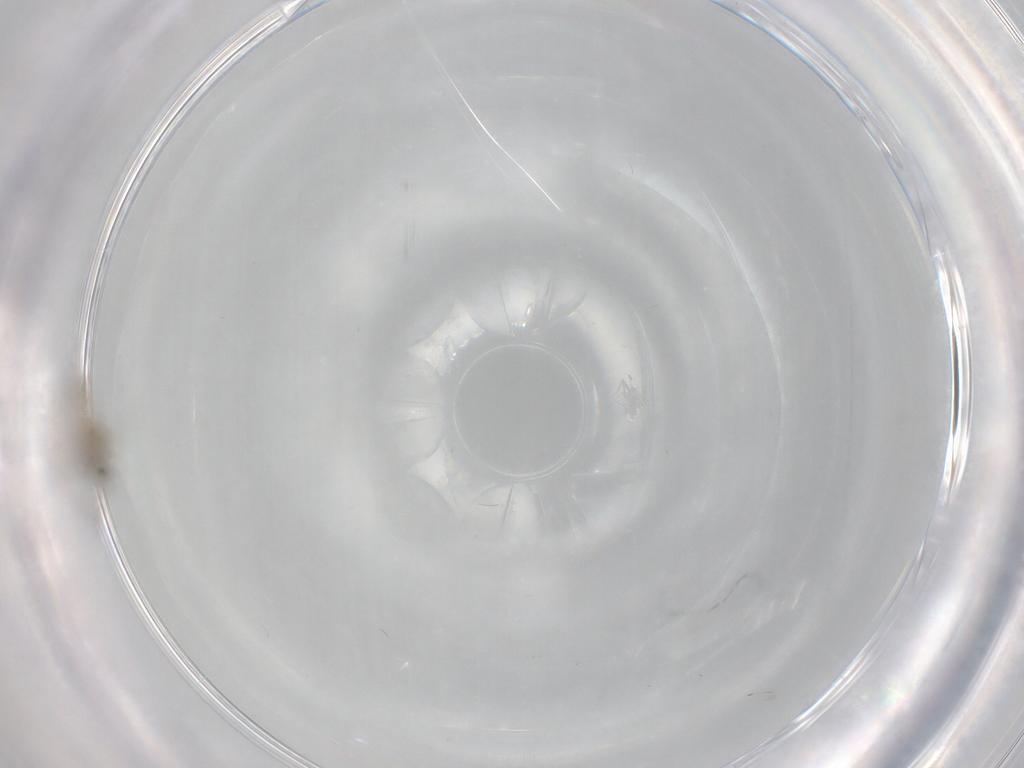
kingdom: Animalia
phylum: Arthropoda
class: Insecta
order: Diptera
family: Cecidomyiidae
